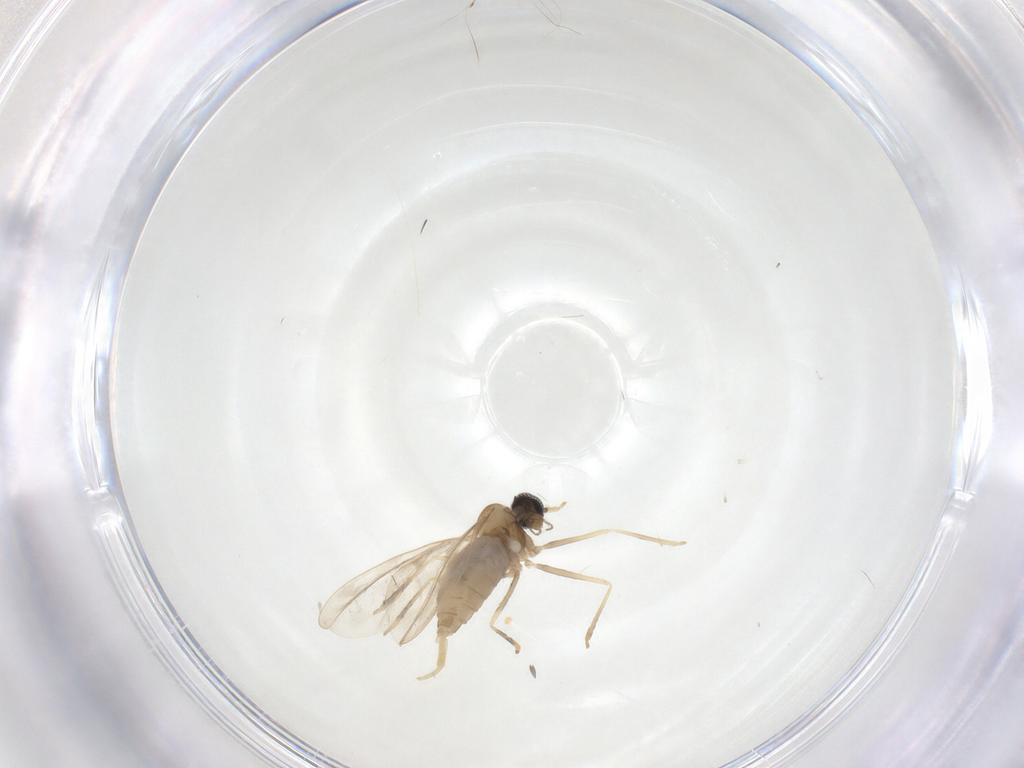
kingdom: Animalia
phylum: Arthropoda
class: Insecta
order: Diptera
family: Cecidomyiidae
